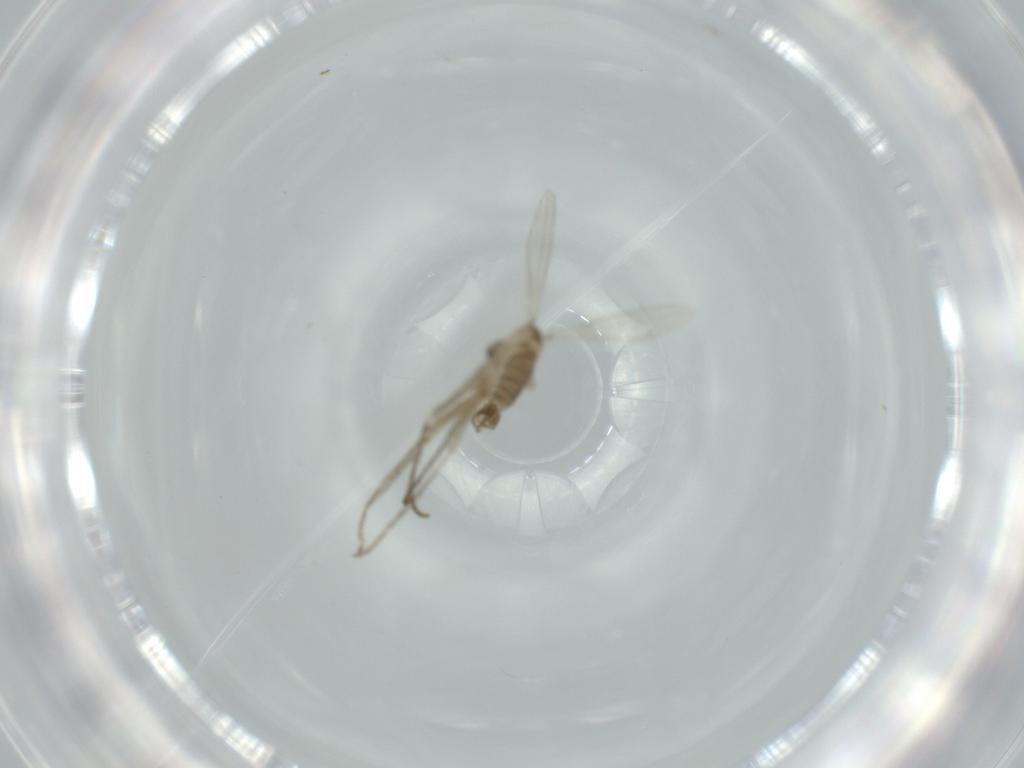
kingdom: Animalia
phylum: Arthropoda
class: Insecta
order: Diptera
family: Psychodidae
